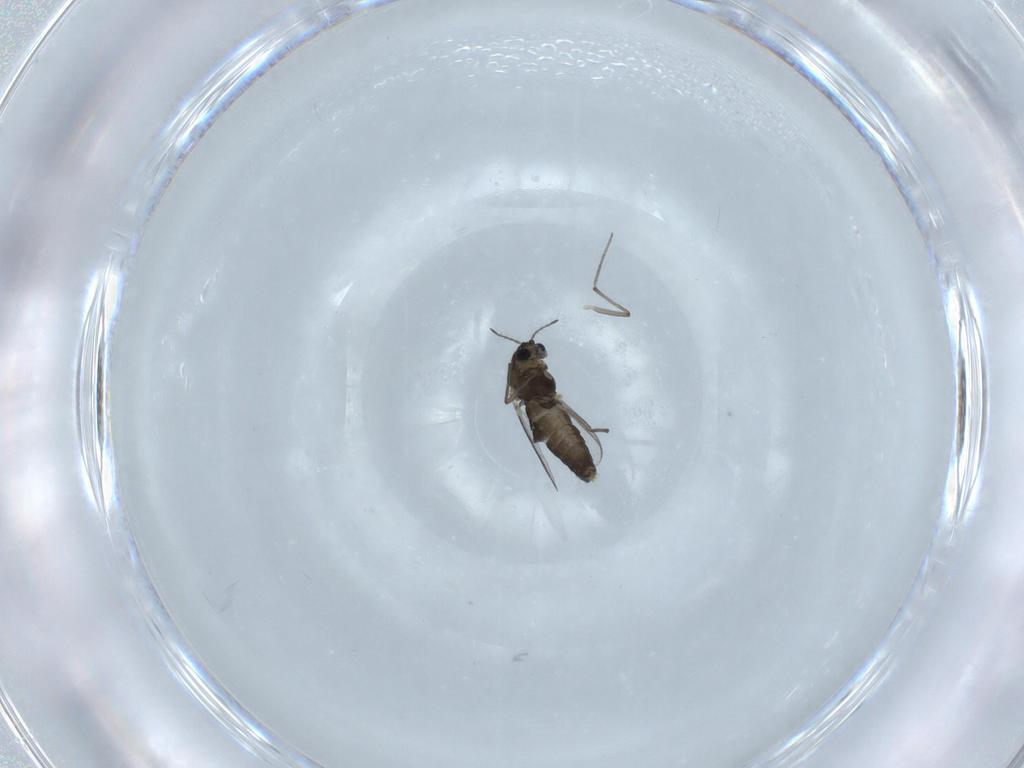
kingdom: Animalia
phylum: Arthropoda
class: Insecta
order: Diptera
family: Chironomidae
